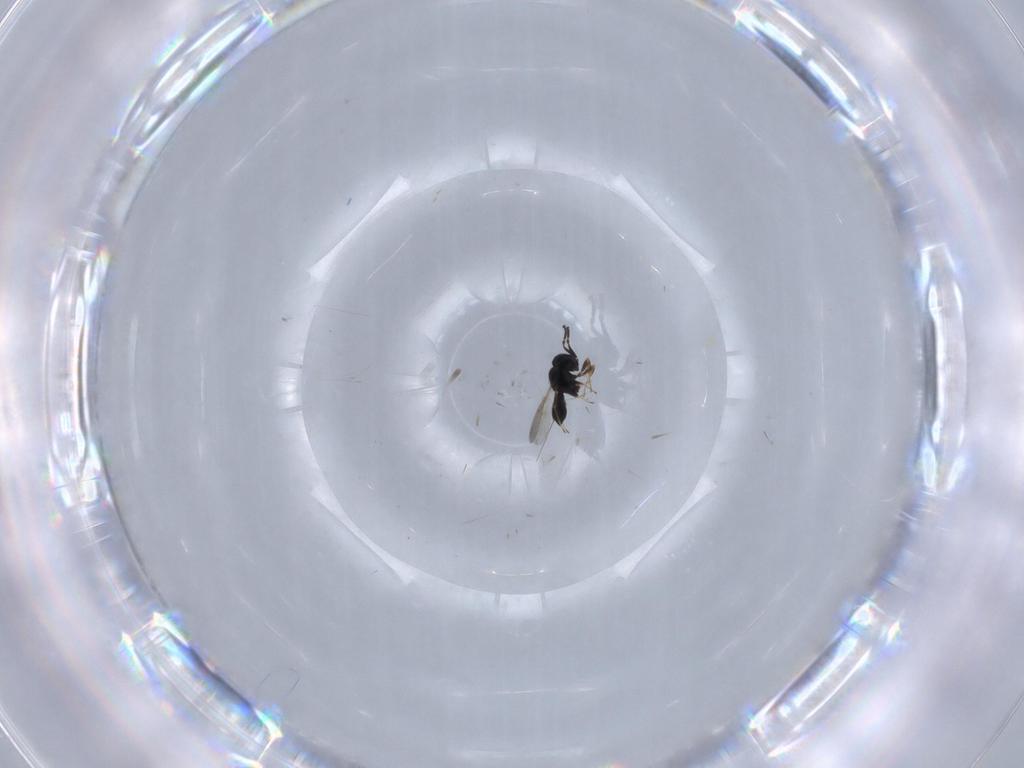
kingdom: Animalia
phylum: Arthropoda
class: Insecta
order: Hymenoptera
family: Scelionidae
